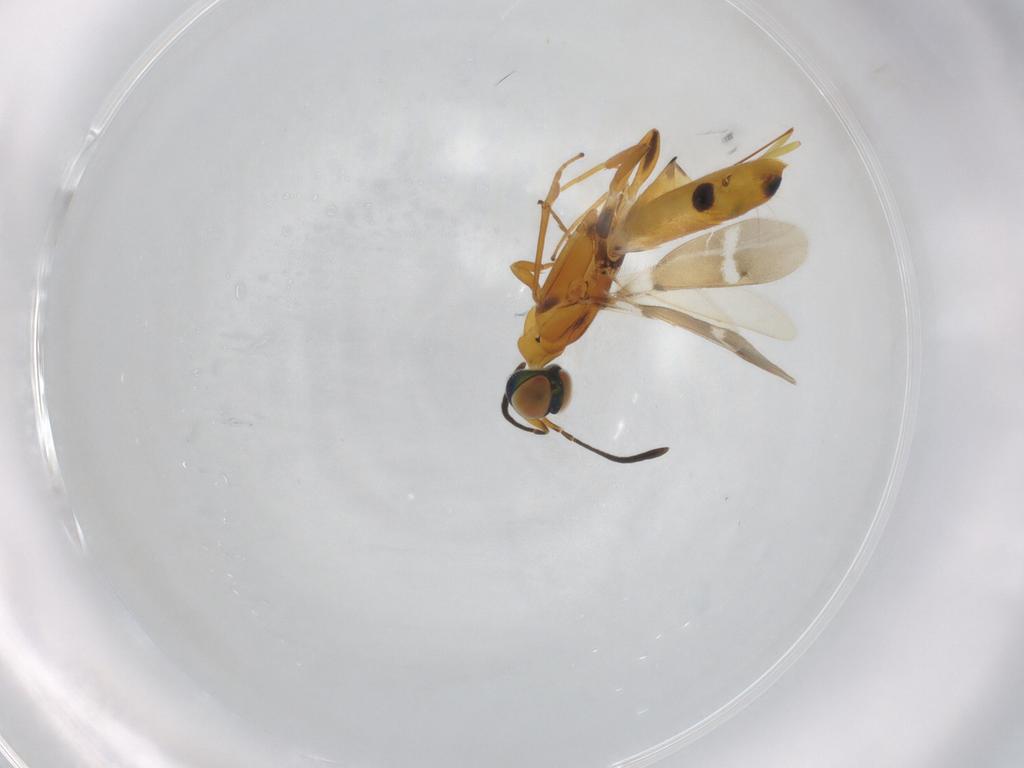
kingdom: Animalia
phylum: Arthropoda
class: Insecta
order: Hymenoptera
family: Eupelmidae
